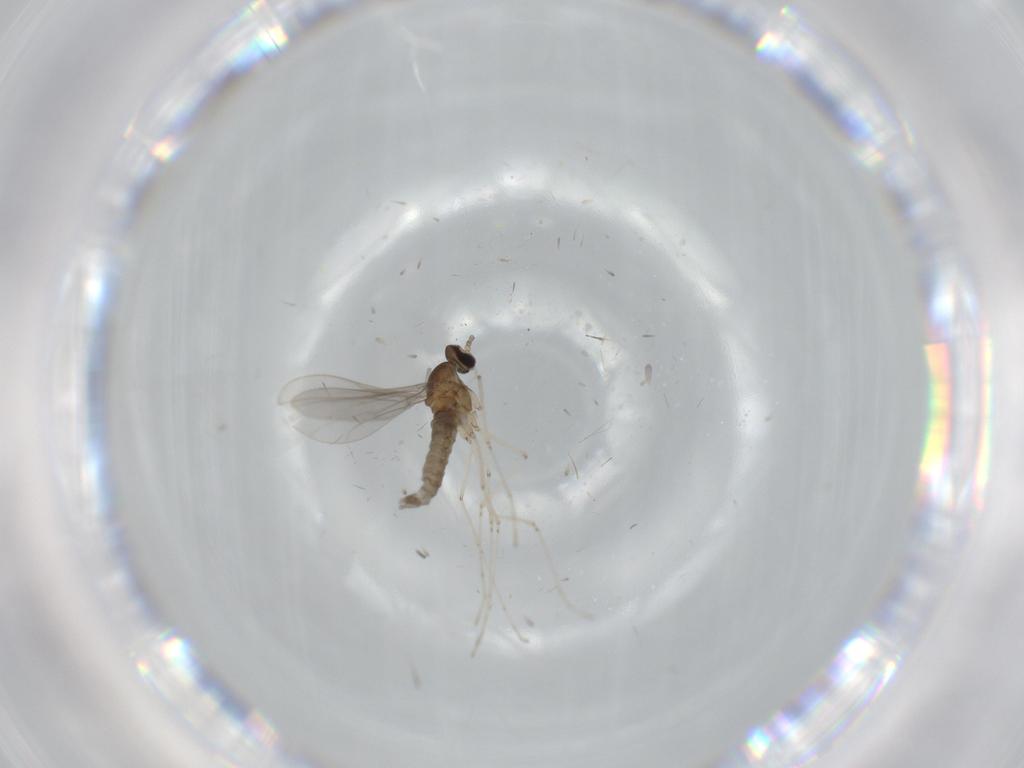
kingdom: Animalia
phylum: Arthropoda
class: Insecta
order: Diptera
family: Cecidomyiidae
